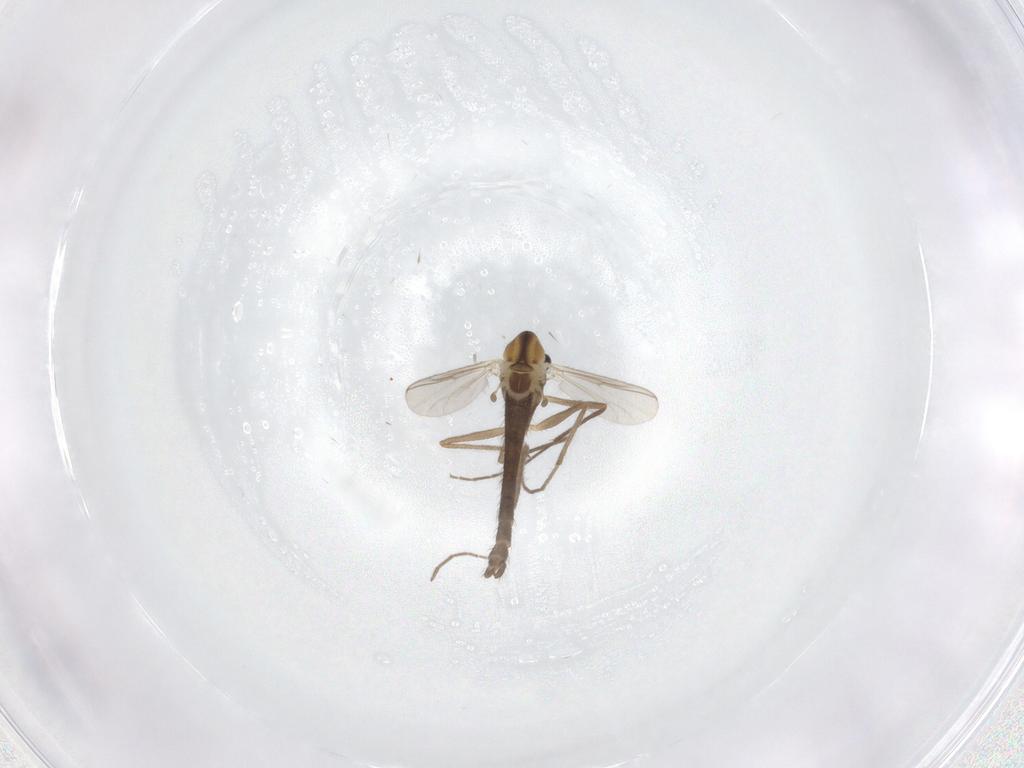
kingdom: Animalia
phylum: Arthropoda
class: Insecta
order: Diptera
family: Chironomidae
